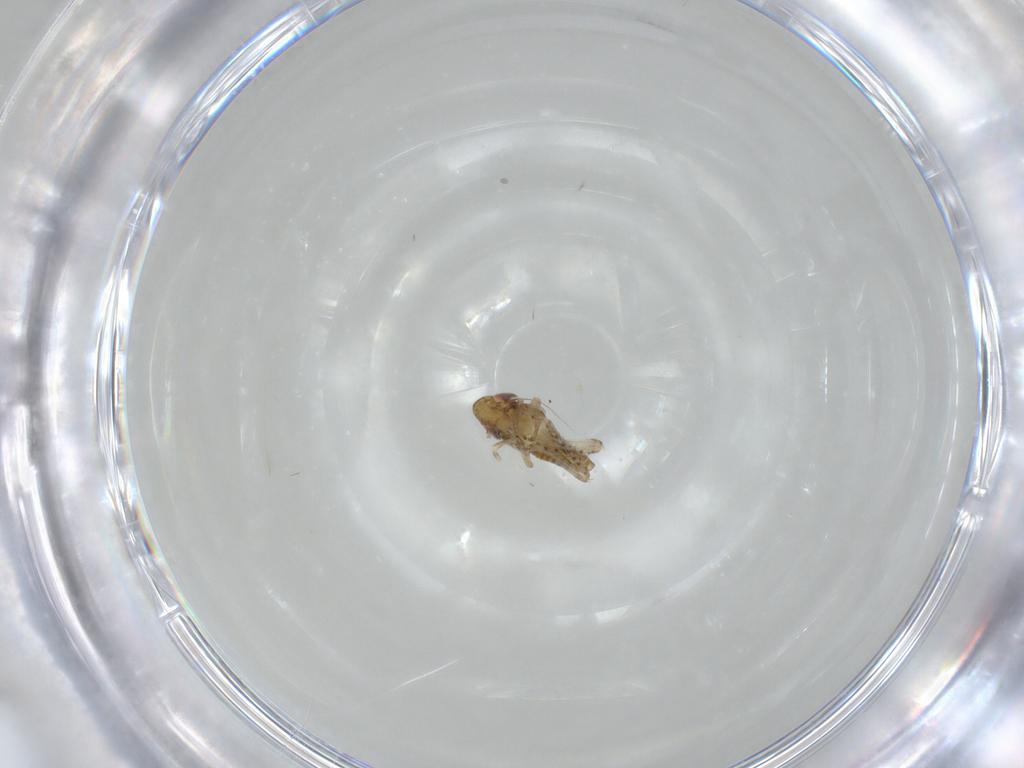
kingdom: Animalia
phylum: Arthropoda
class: Insecta
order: Hemiptera
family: Cicadellidae
